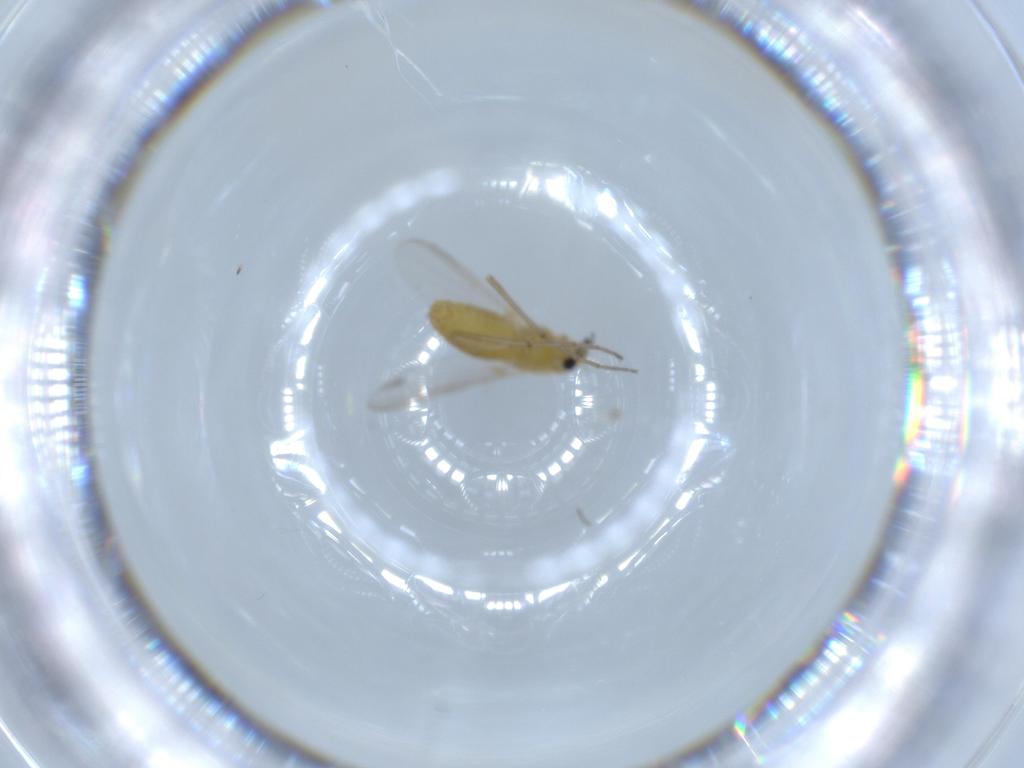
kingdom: Animalia
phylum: Arthropoda
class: Insecta
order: Diptera
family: Chironomidae
